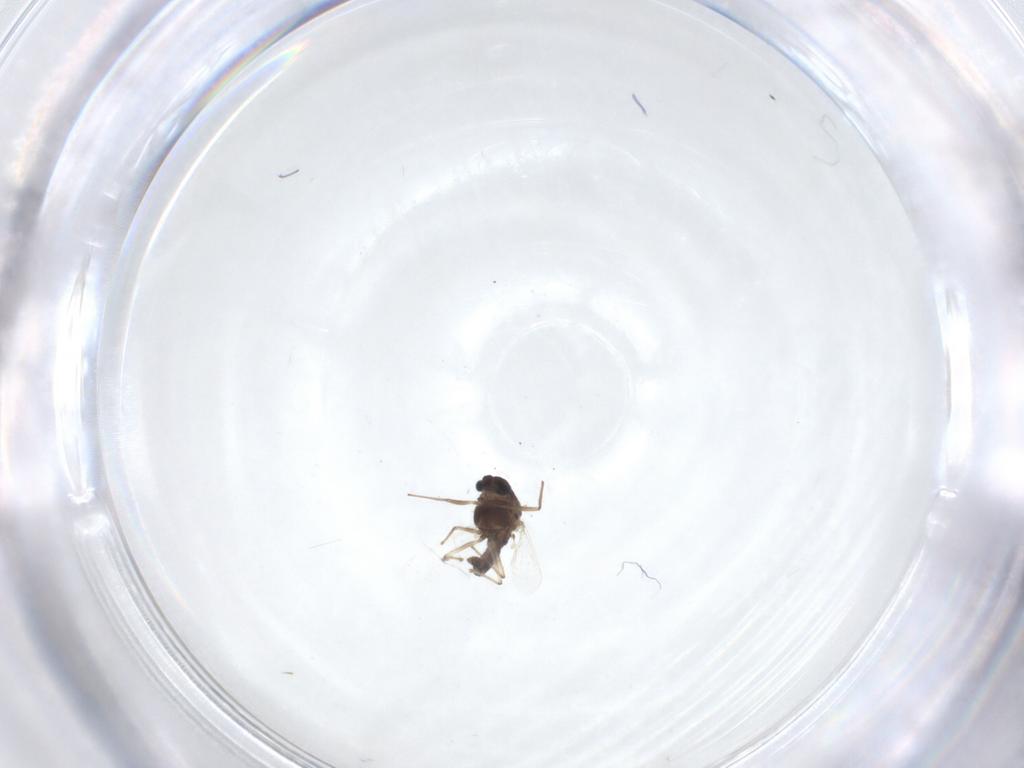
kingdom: Animalia
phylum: Arthropoda
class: Insecta
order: Diptera
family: Chironomidae
